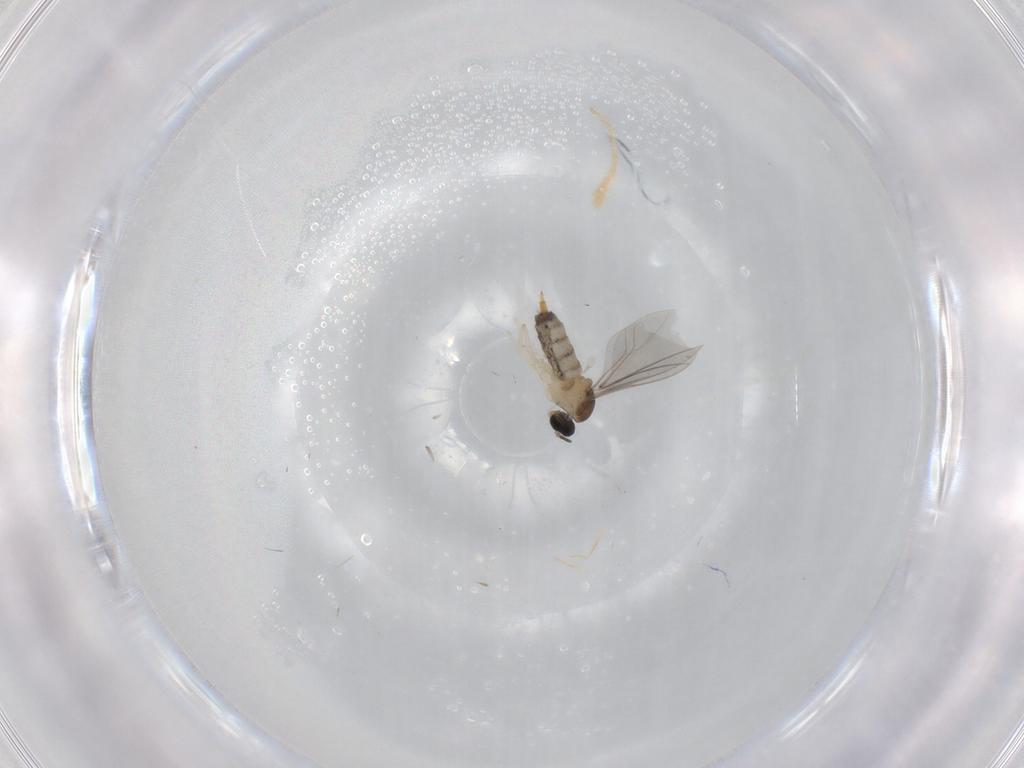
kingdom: Animalia
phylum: Arthropoda
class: Insecta
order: Diptera
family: Cecidomyiidae
